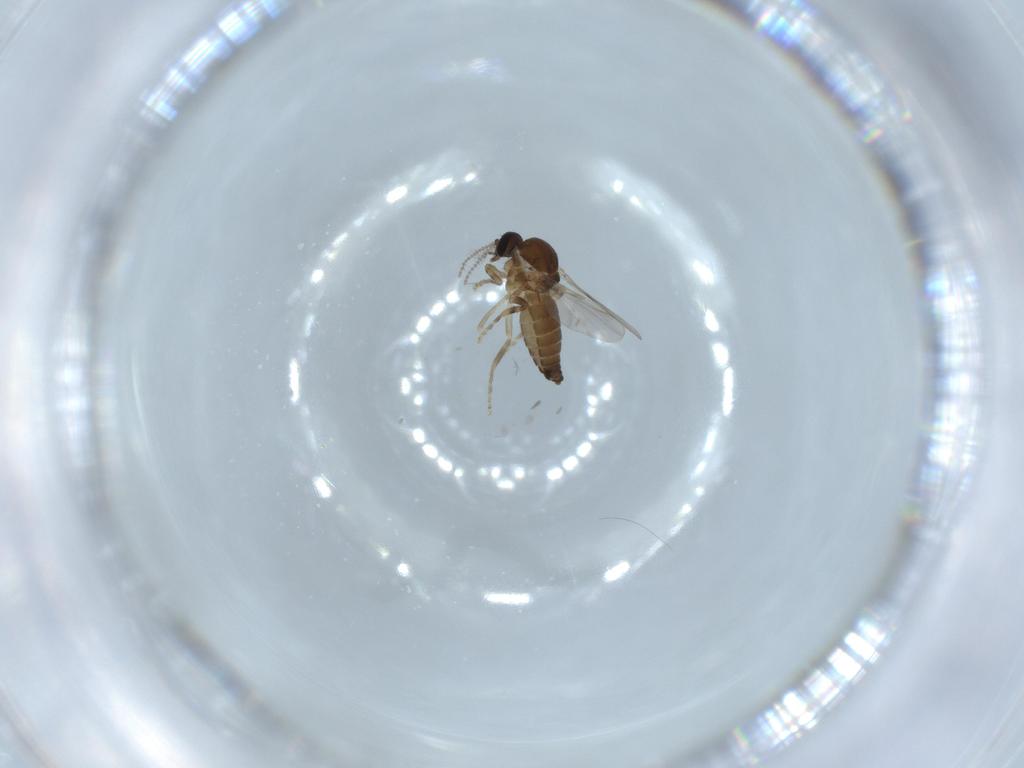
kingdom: Animalia
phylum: Arthropoda
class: Insecta
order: Diptera
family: Ceratopogonidae
